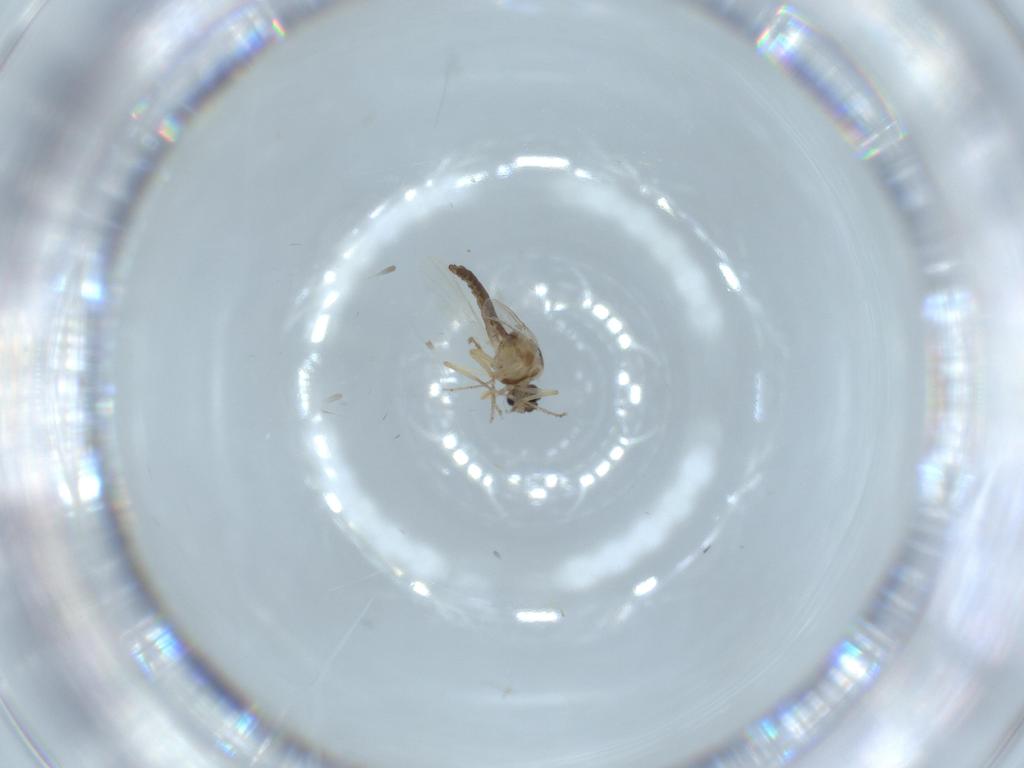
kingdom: Animalia
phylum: Arthropoda
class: Insecta
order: Diptera
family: Ceratopogonidae
